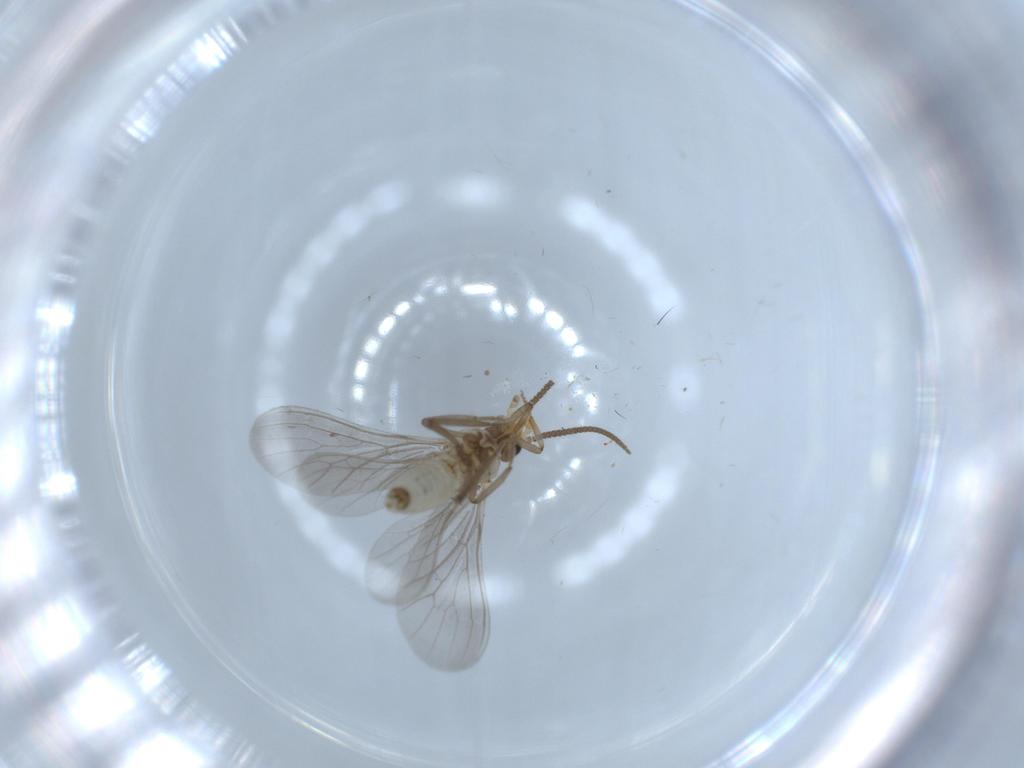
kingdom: Animalia
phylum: Arthropoda
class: Insecta
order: Neuroptera
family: Coniopterygidae
